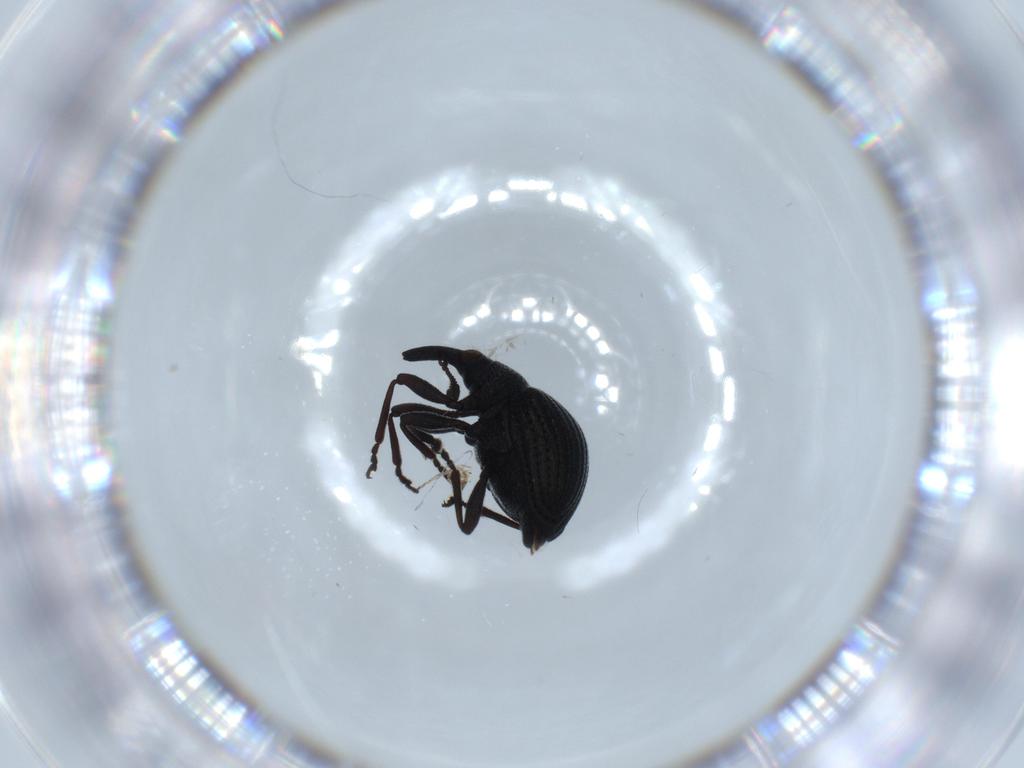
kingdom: Animalia
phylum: Arthropoda
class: Insecta
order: Coleoptera
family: Brentidae
